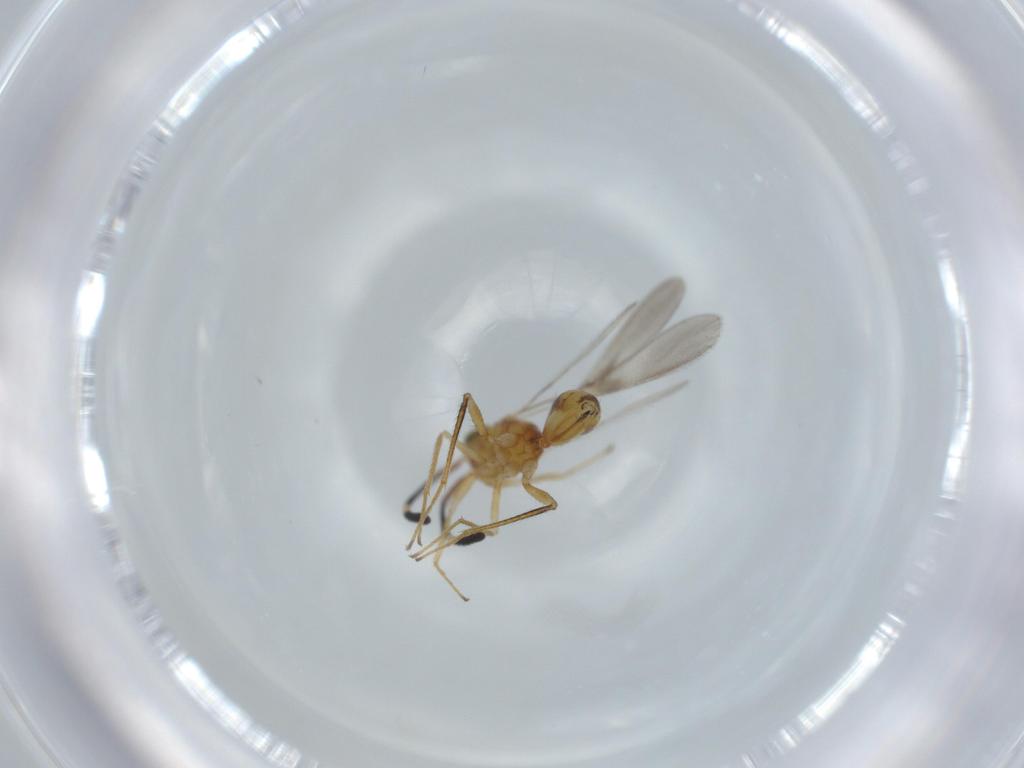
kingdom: Animalia
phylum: Arthropoda
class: Insecta
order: Hymenoptera
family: Mymaridae
